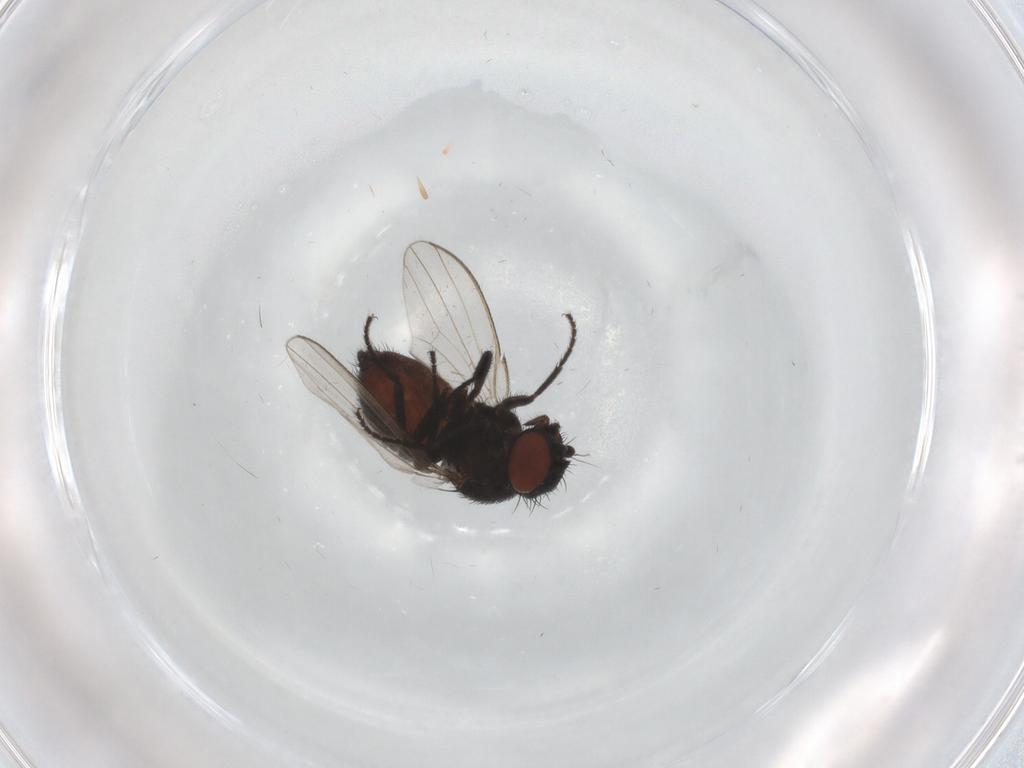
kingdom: Animalia
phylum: Arthropoda
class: Insecta
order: Diptera
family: Milichiidae
